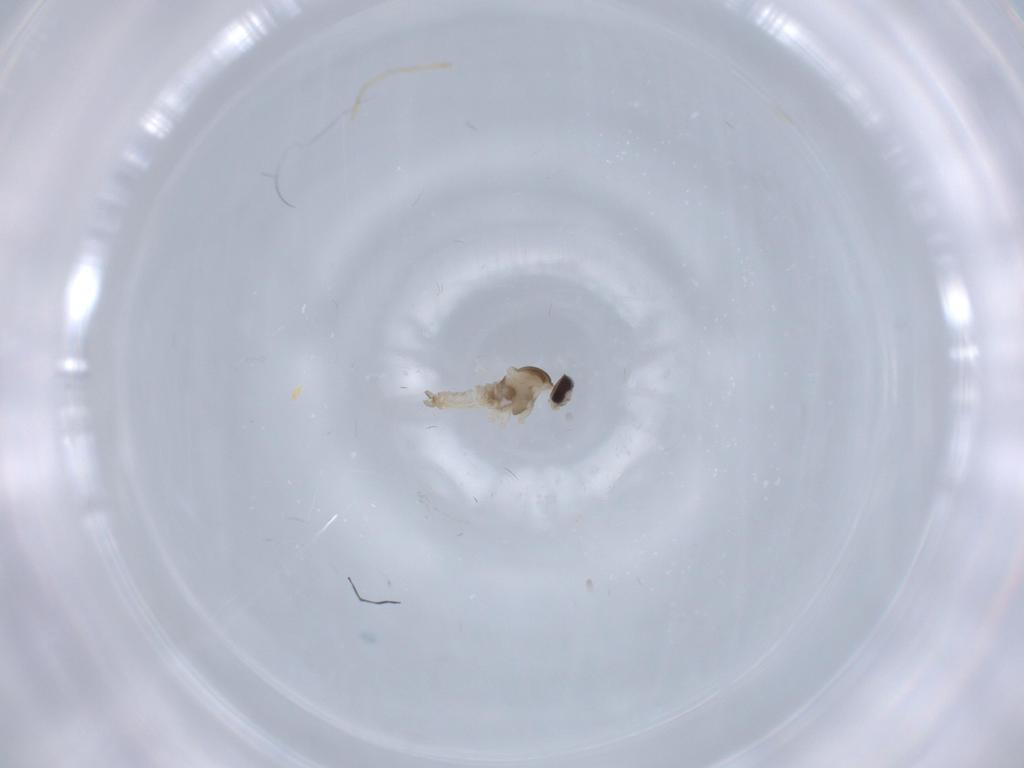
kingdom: Animalia
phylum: Arthropoda
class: Insecta
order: Diptera
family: Cecidomyiidae
